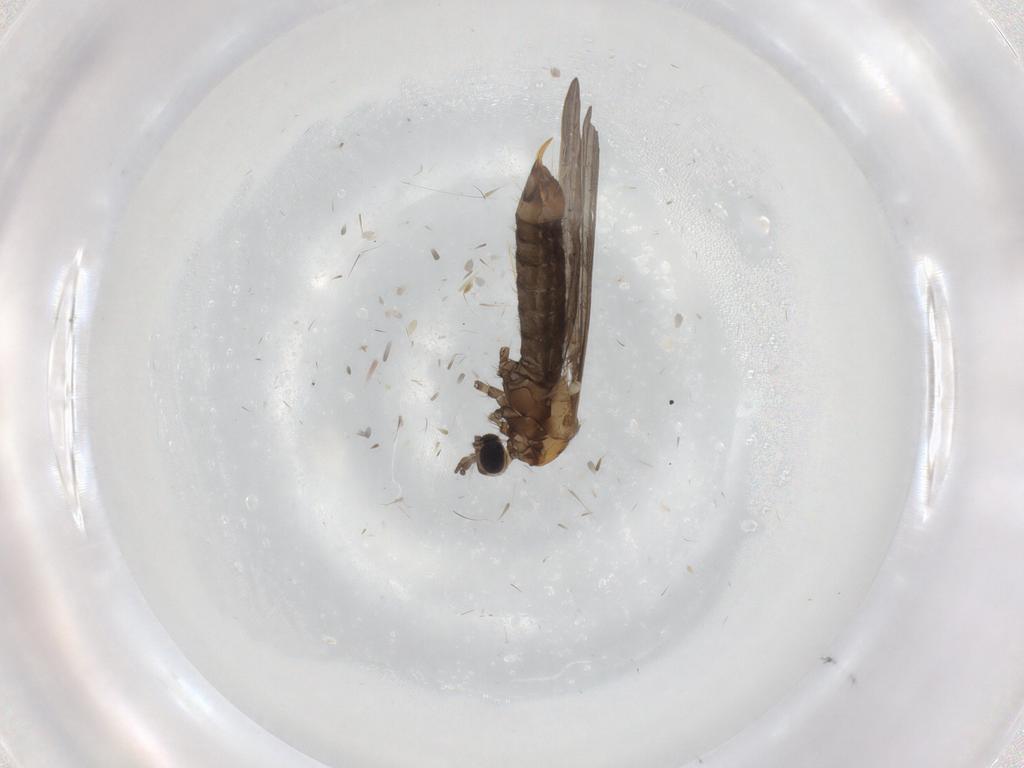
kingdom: Animalia
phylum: Arthropoda
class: Insecta
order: Diptera
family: Limoniidae
